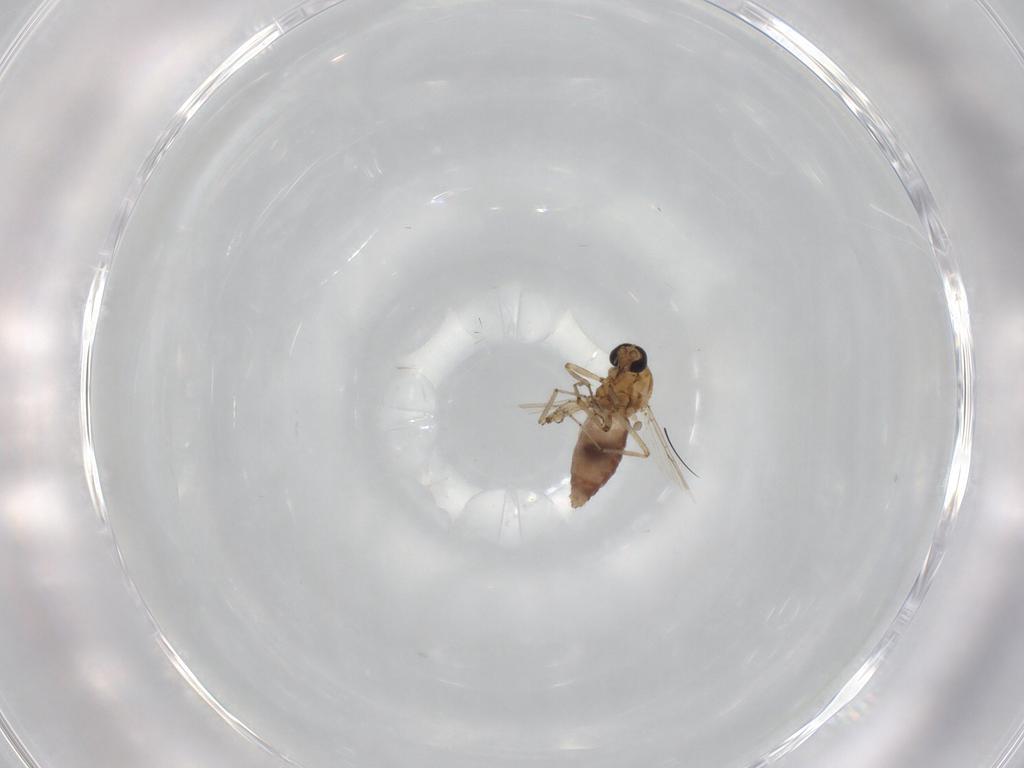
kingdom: Animalia
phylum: Arthropoda
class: Insecta
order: Diptera
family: Ceratopogonidae
